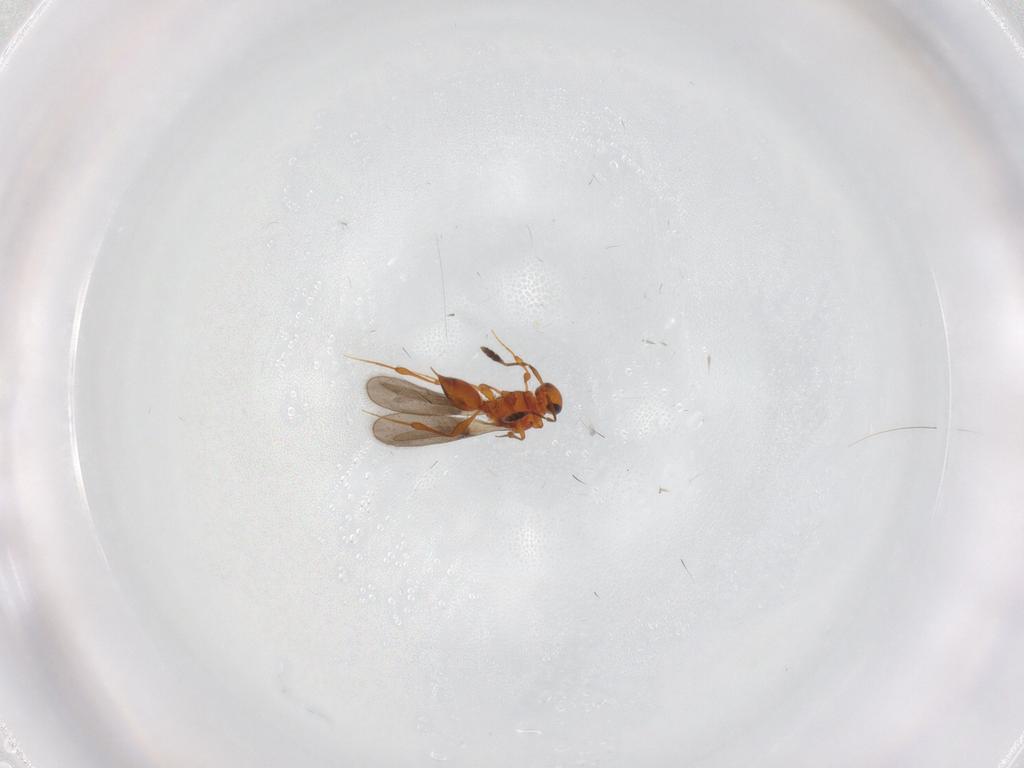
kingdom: Animalia
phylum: Arthropoda
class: Insecta
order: Hymenoptera
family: Platygastridae
